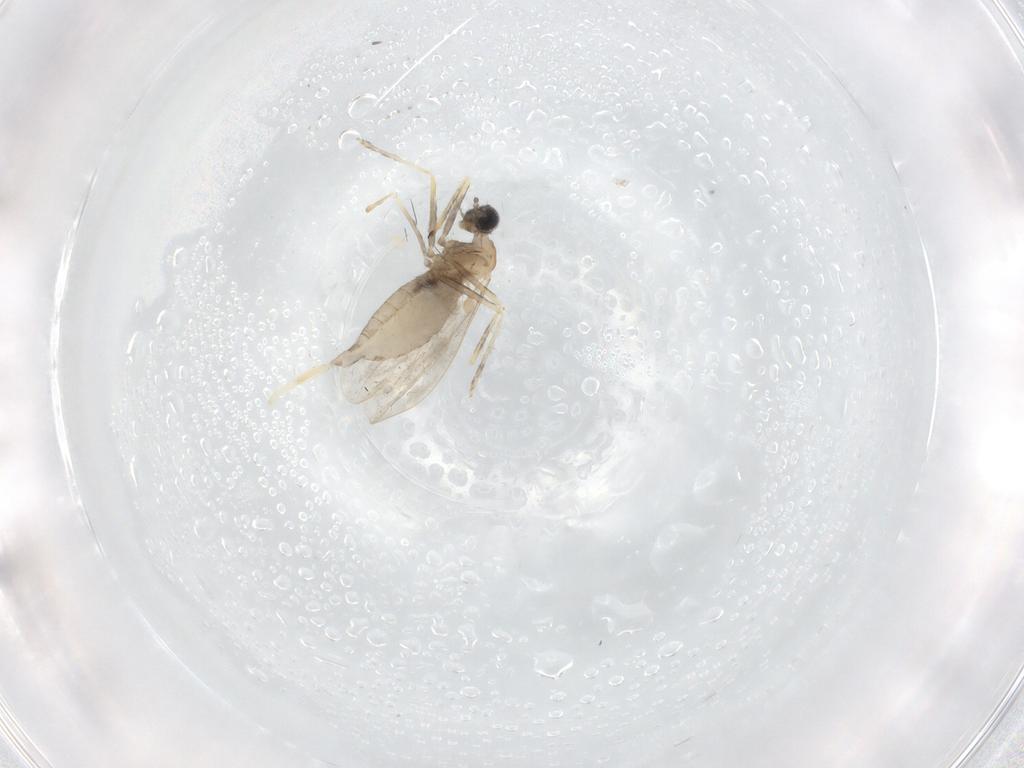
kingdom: Animalia
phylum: Arthropoda
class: Insecta
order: Diptera
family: Cecidomyiidae
